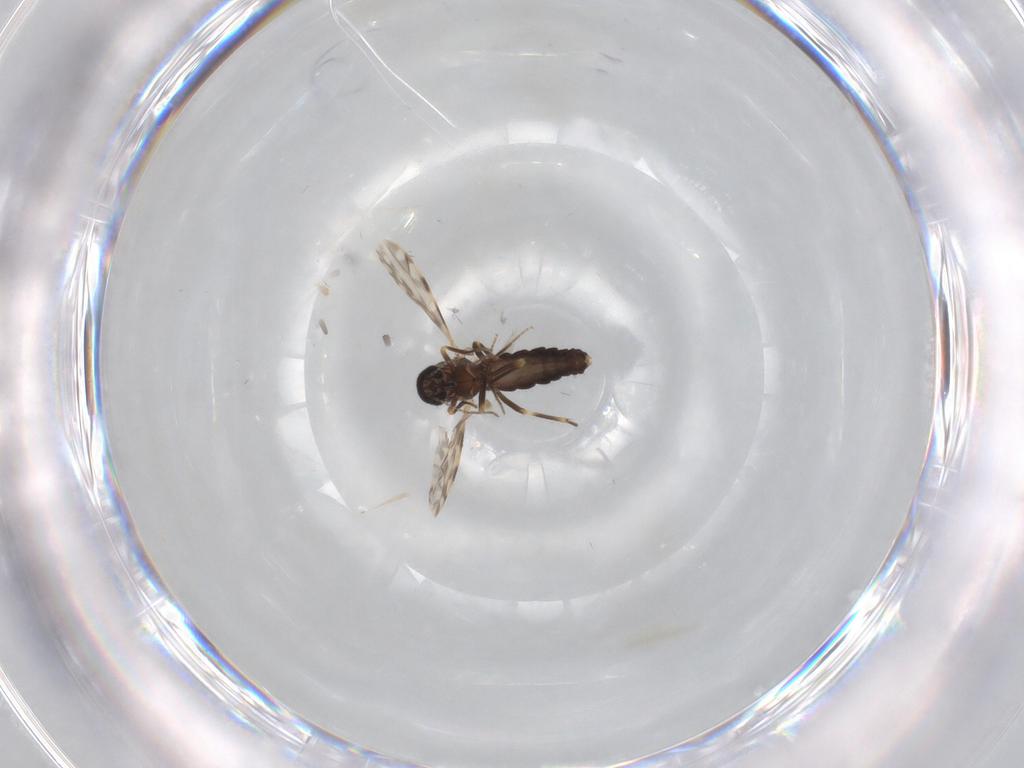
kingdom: Animalia
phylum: Arthropoda
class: Insecta
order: Diptera
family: Ceratopogonidae
